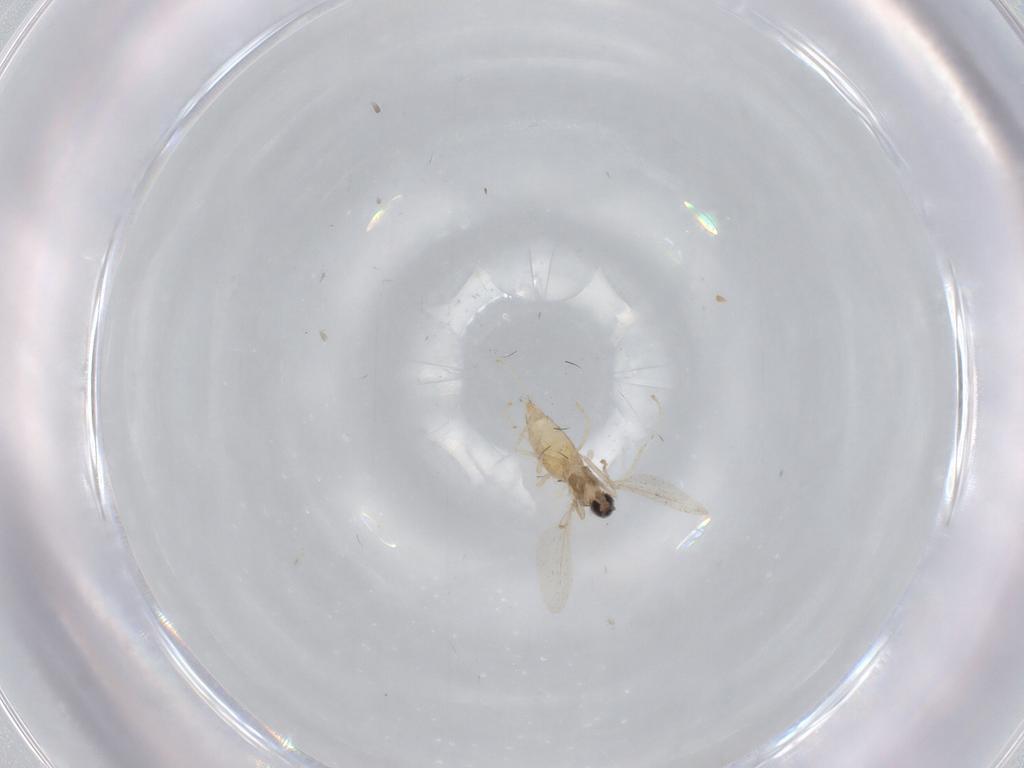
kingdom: Animalia
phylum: Arthropoda
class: Insecta
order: Diptera
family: Cecidomyiidae
